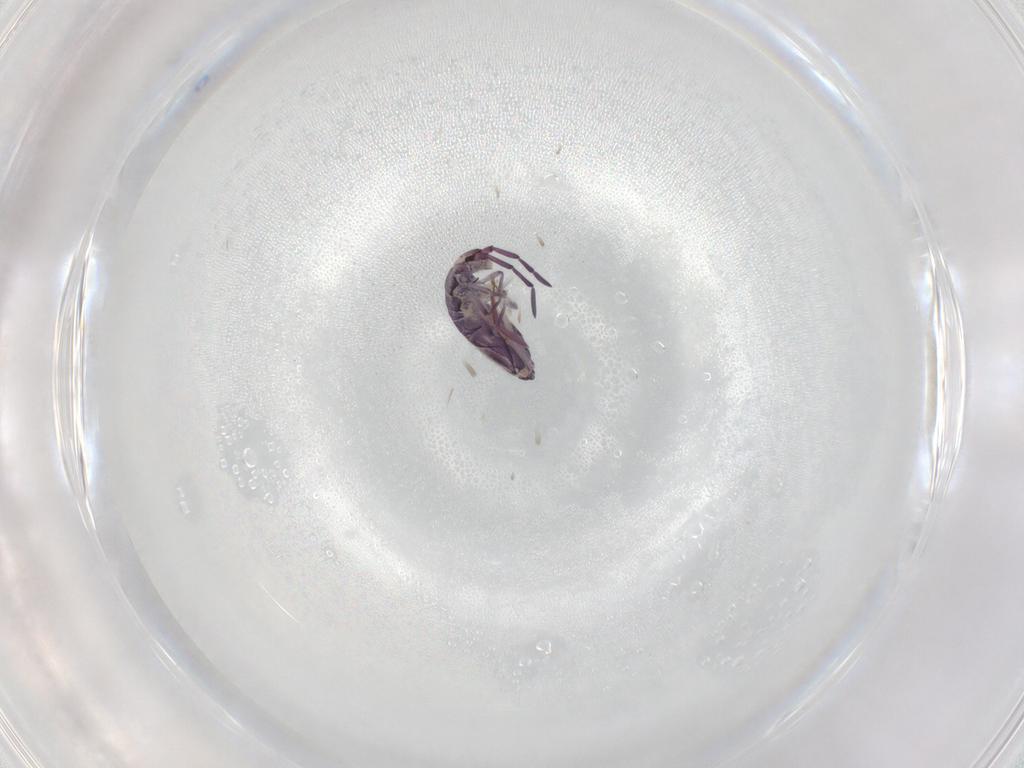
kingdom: Animalia
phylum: Arthropoda
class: Collembola
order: Entomobryomorpha
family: Entomobryidae
